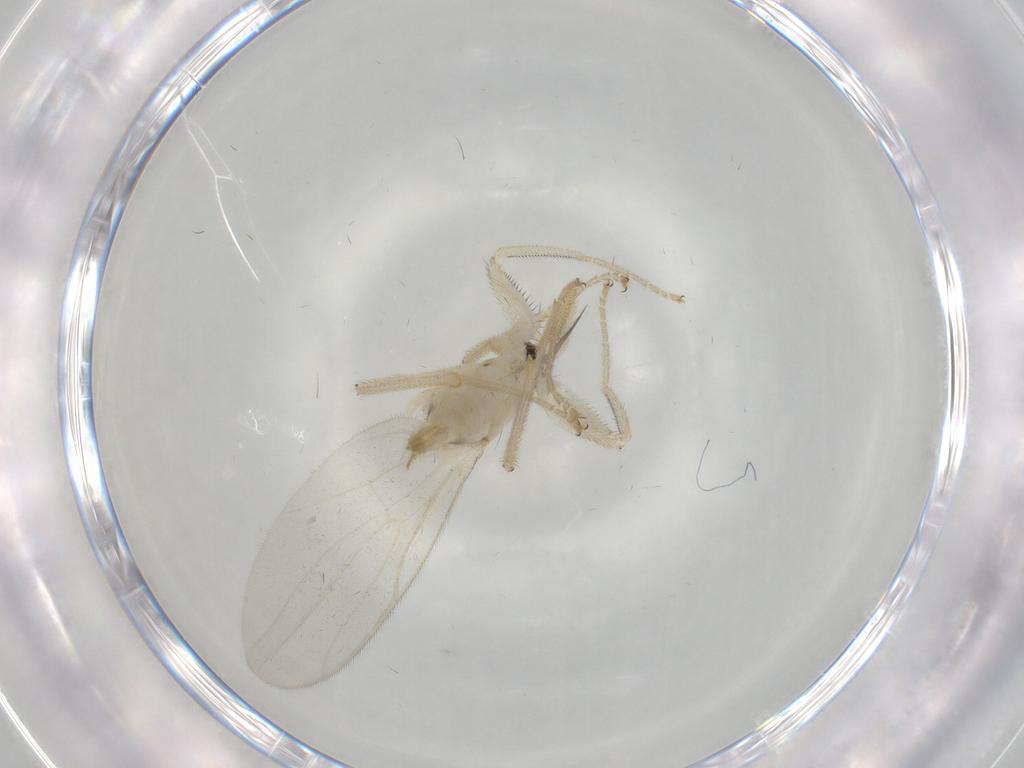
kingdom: Animalia
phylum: Arthropoda
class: Insecta
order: Diptera
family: Hybotidae
